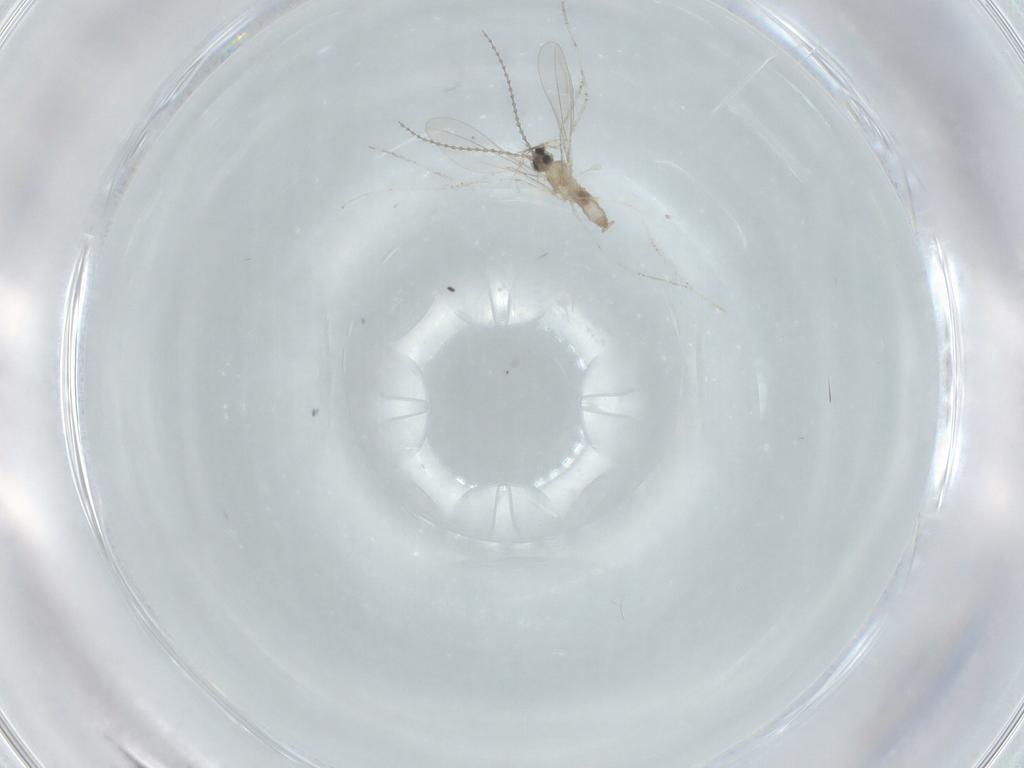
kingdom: Animalia
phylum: Arthropoda
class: Insecta
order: Diptera
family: Cecidomyiidae
